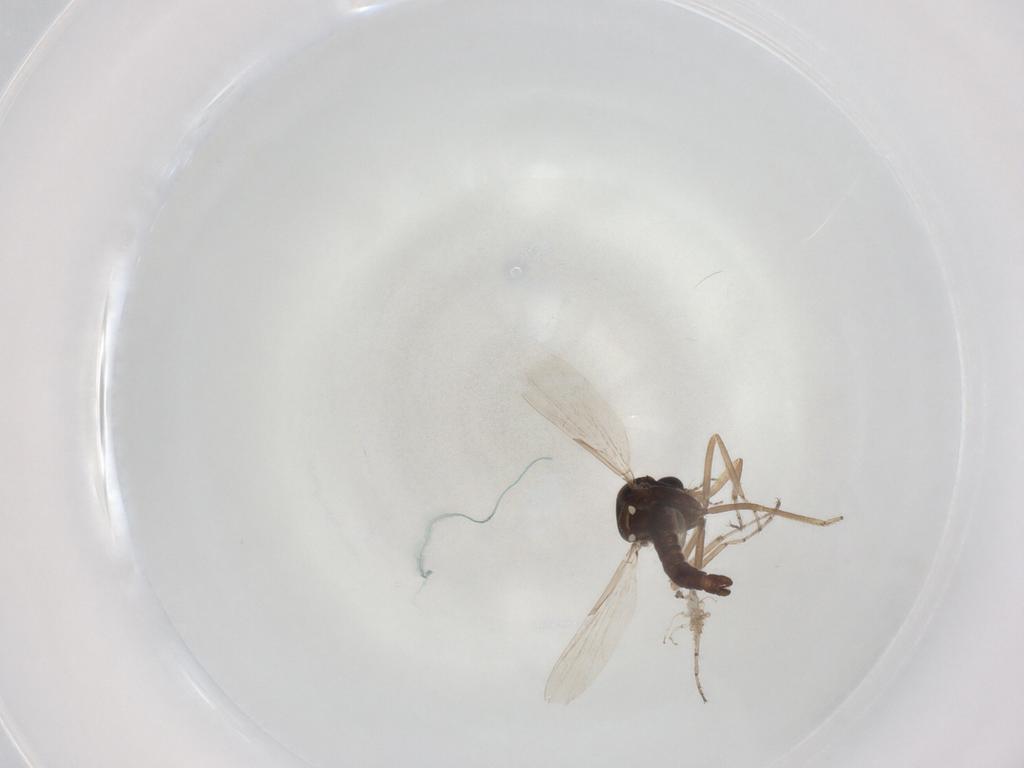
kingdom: Animalia
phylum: Arthropoda
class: Insecta
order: Diptera
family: Ceratopogonidae
